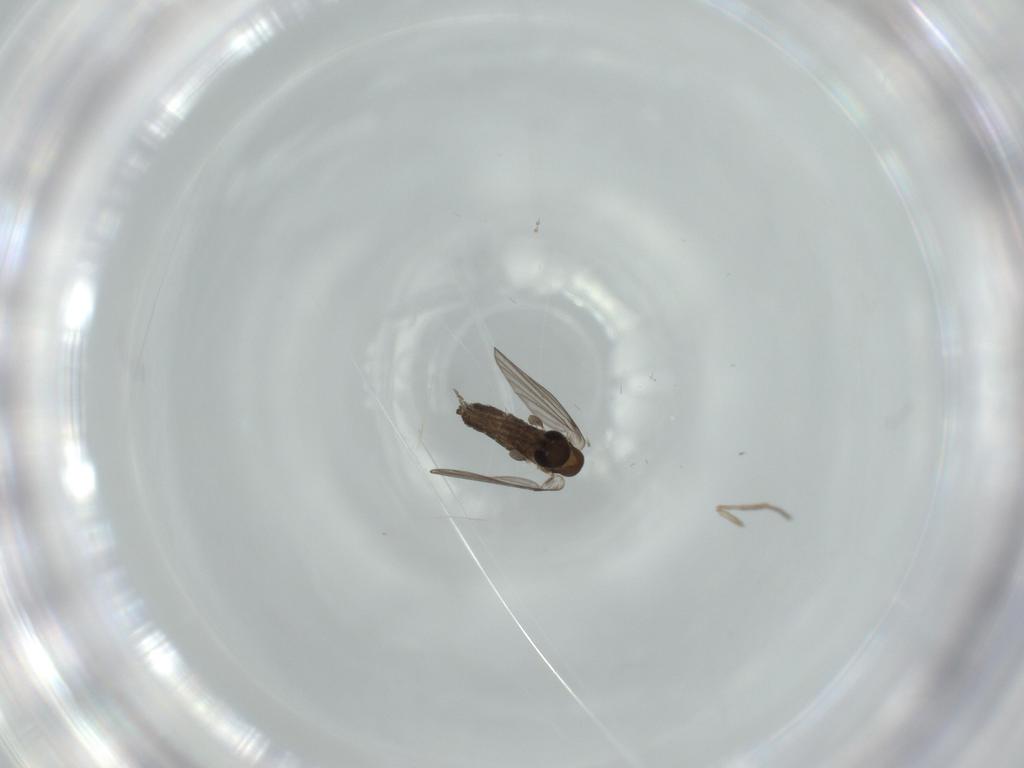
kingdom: Animalia
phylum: Arthropoda
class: Insecta
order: Diptera
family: Cecidomyiidae
